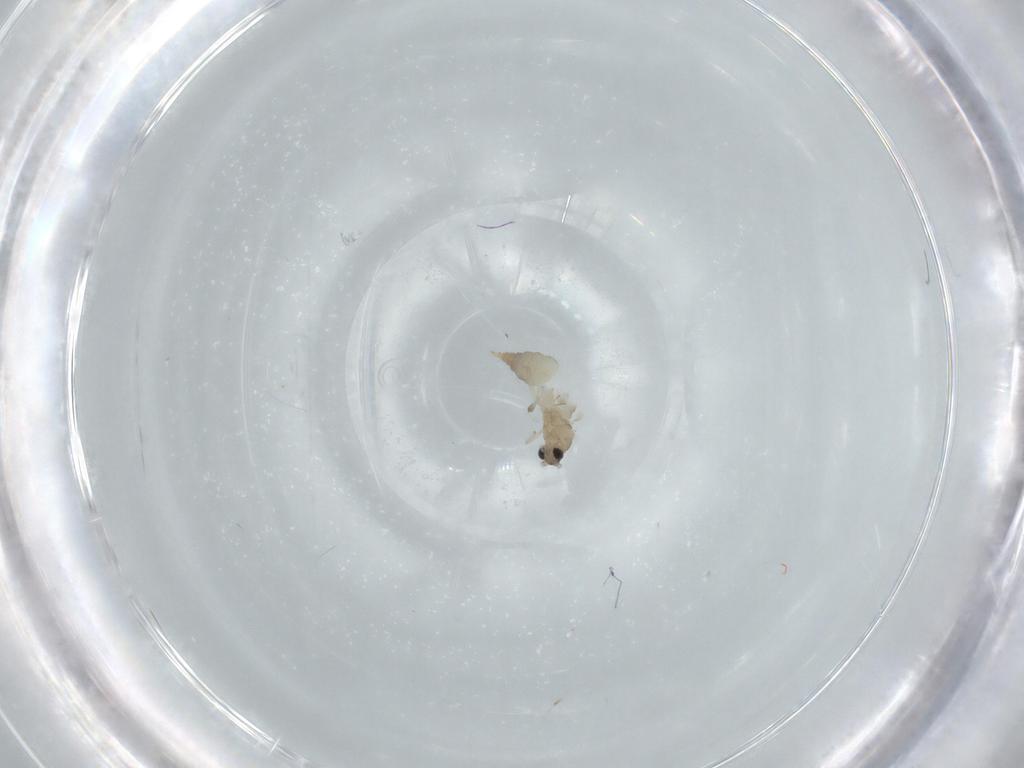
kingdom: Animalia
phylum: Arthropoda
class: Insecta
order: Diptera
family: Cecidomyiidae
